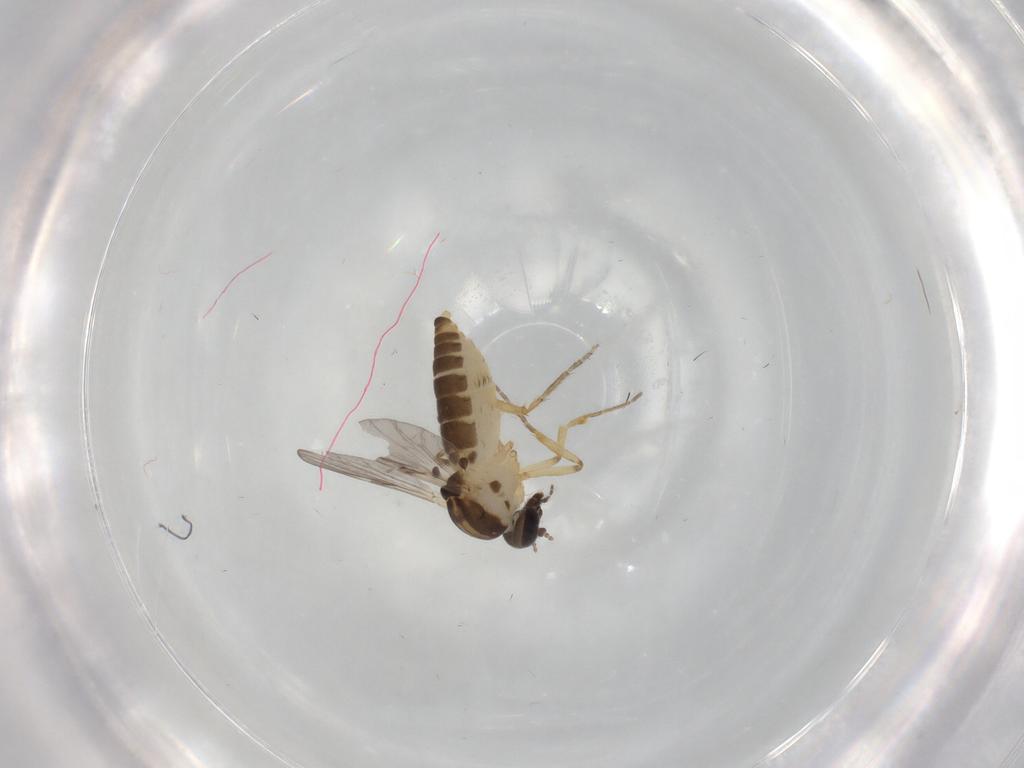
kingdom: Animalia
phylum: Arthropoda
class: Insecta
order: Diptera
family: Ceratopogonidae
